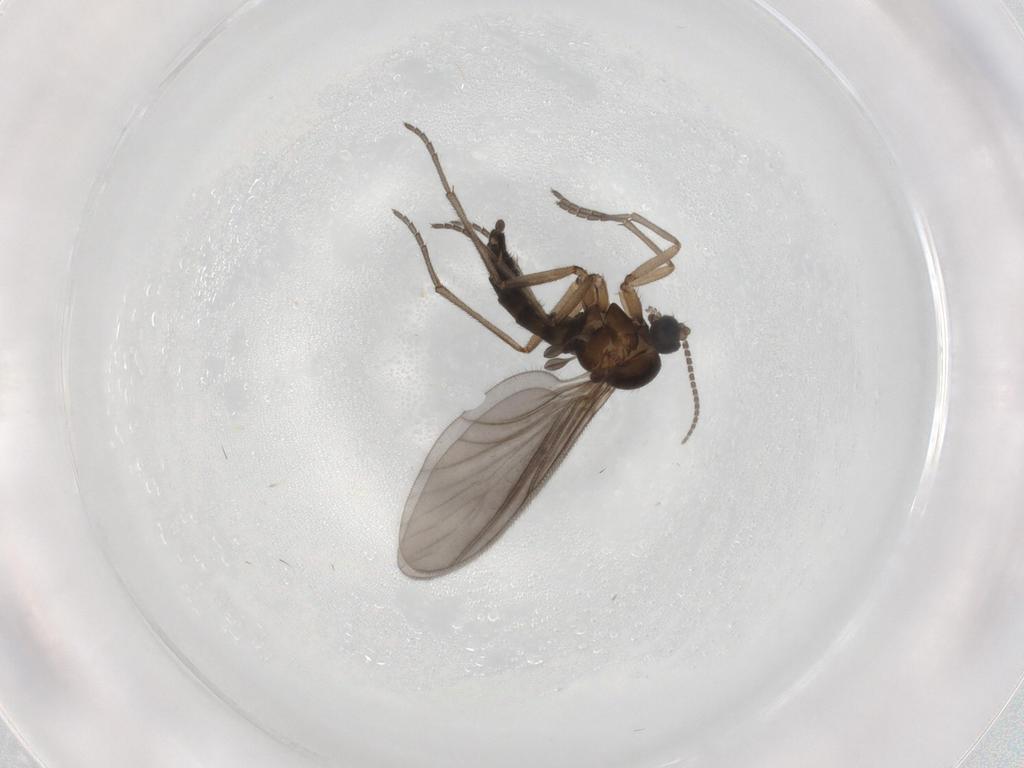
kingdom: Animalia
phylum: Arthropoda
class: Insecta
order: Diptera
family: Sciaridae
